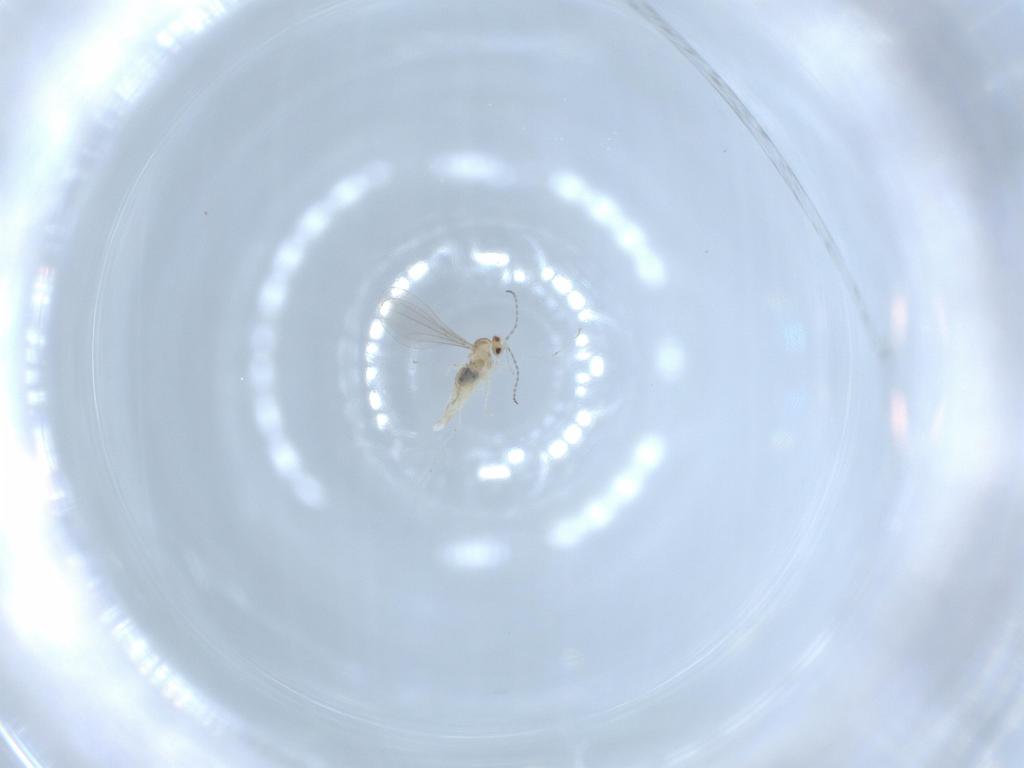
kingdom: Animalia
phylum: Arthropoda
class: Insecta
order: Diptera
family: Cecidomyiidae
